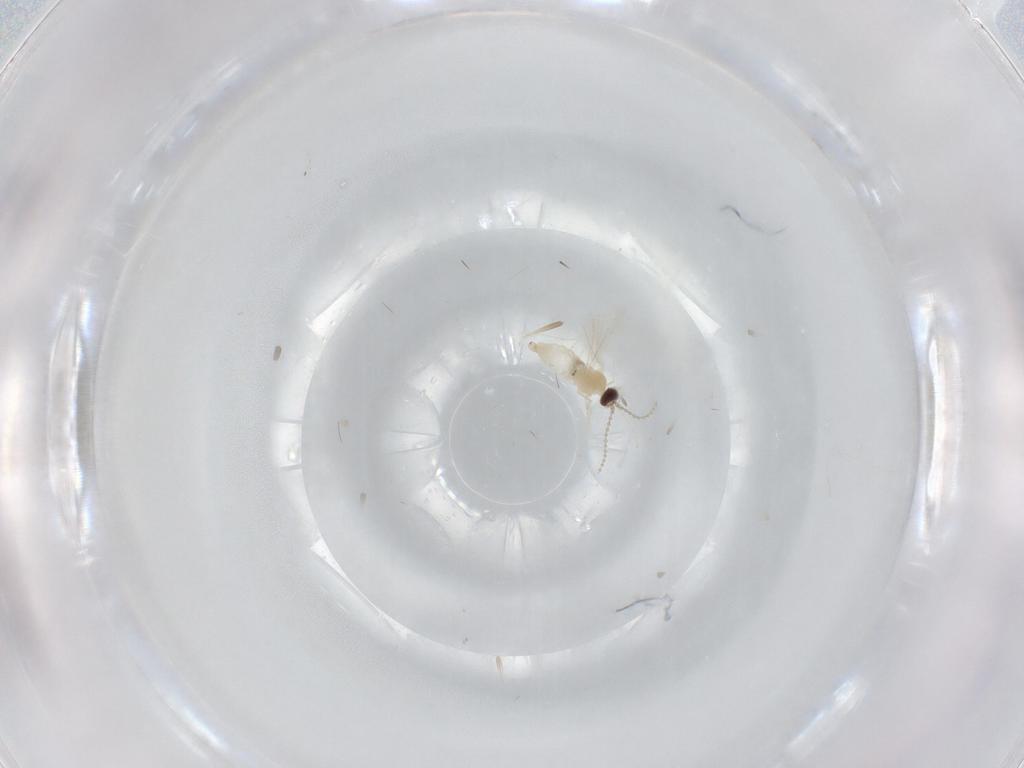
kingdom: Animalia
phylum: Arthropoda
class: Insecta
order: Diptera
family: Cecidomyiidae
